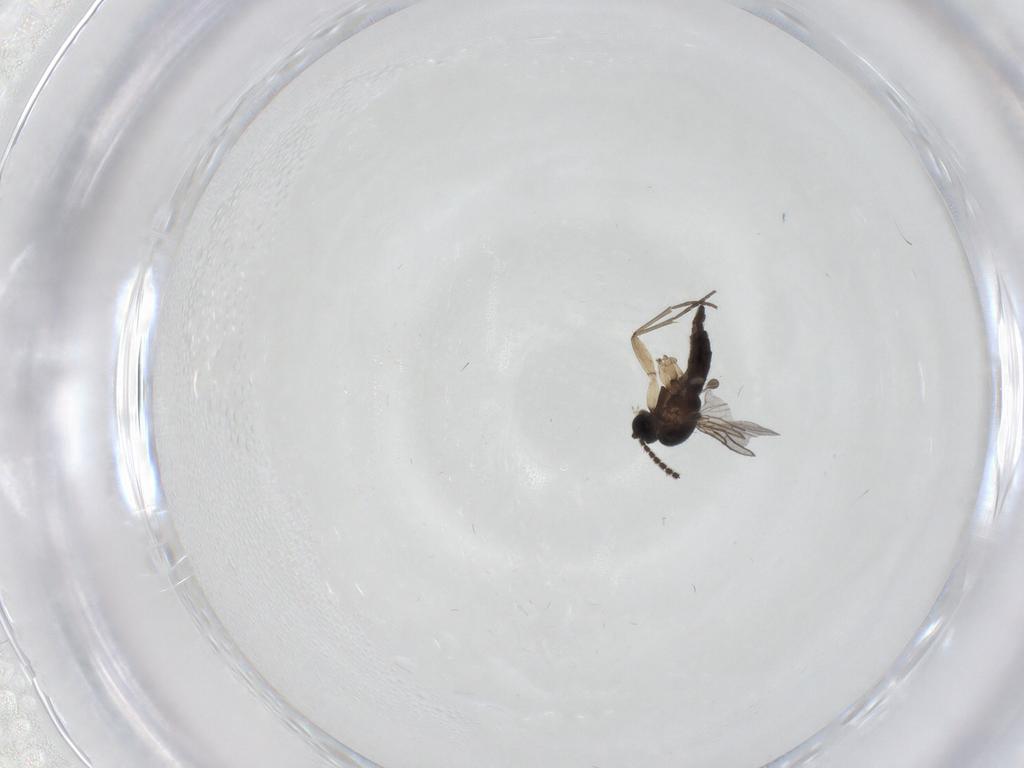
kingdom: Animalia
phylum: Arthropoda
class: Insecta
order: Diptera
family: Sciaridae
